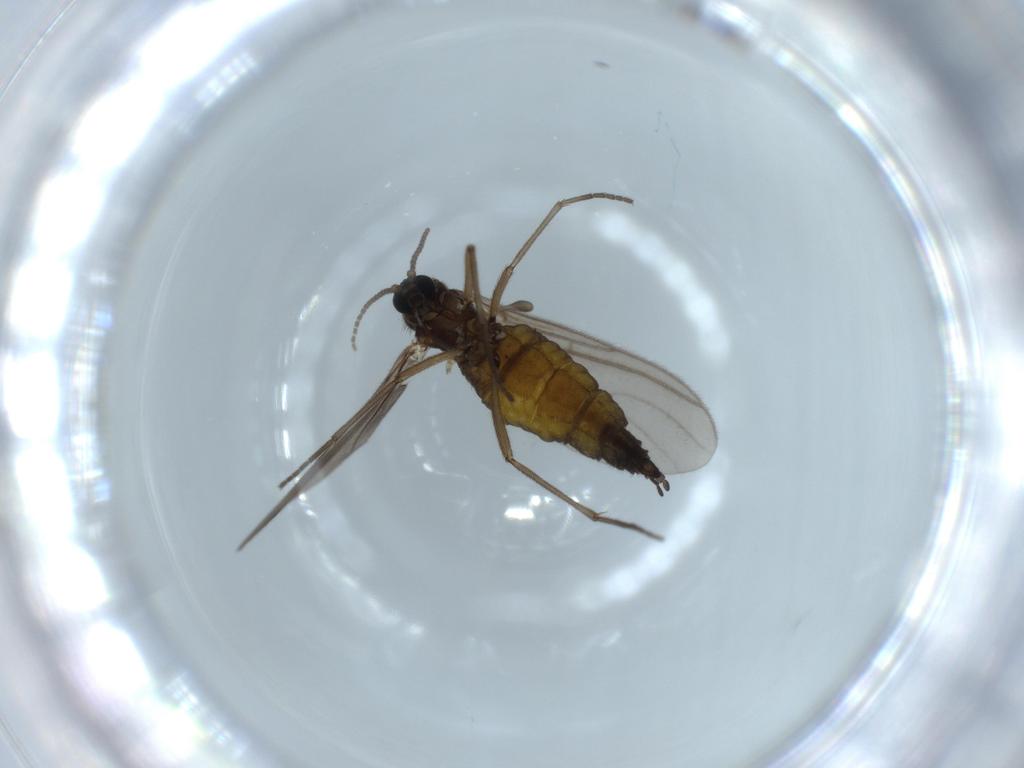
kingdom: Animalia
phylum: Arthropoda
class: Insecta
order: Diptera
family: Sciaridae
